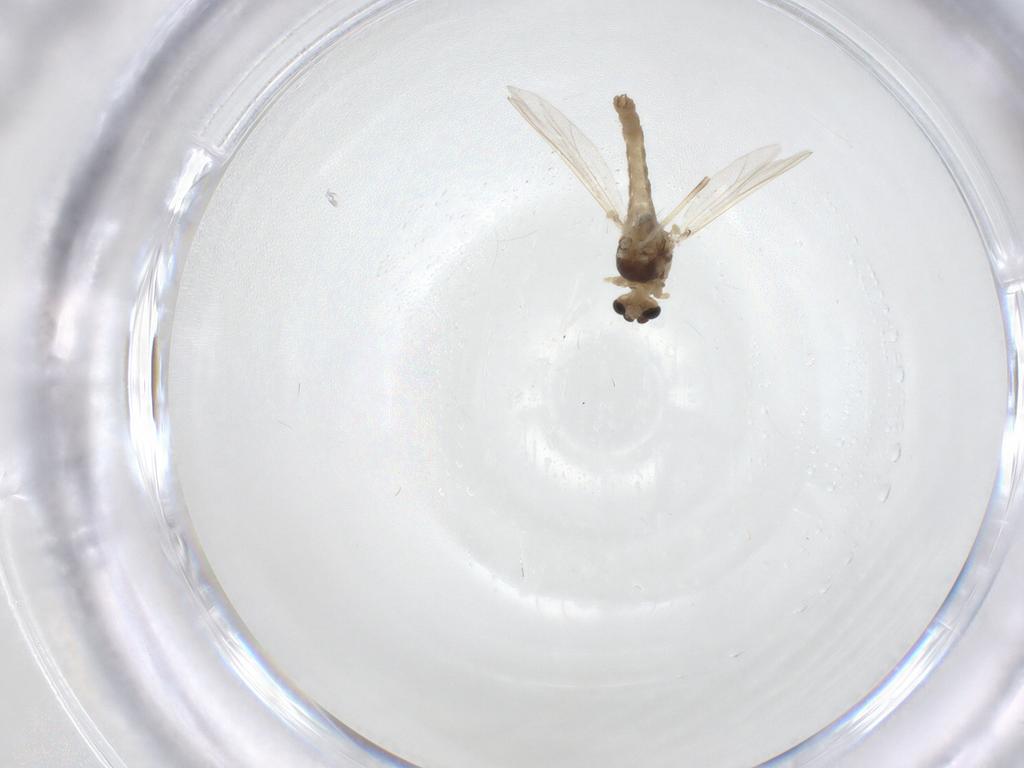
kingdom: Animalia
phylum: Arthropoda
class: Insecta
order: Diptera
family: Chironomidae
